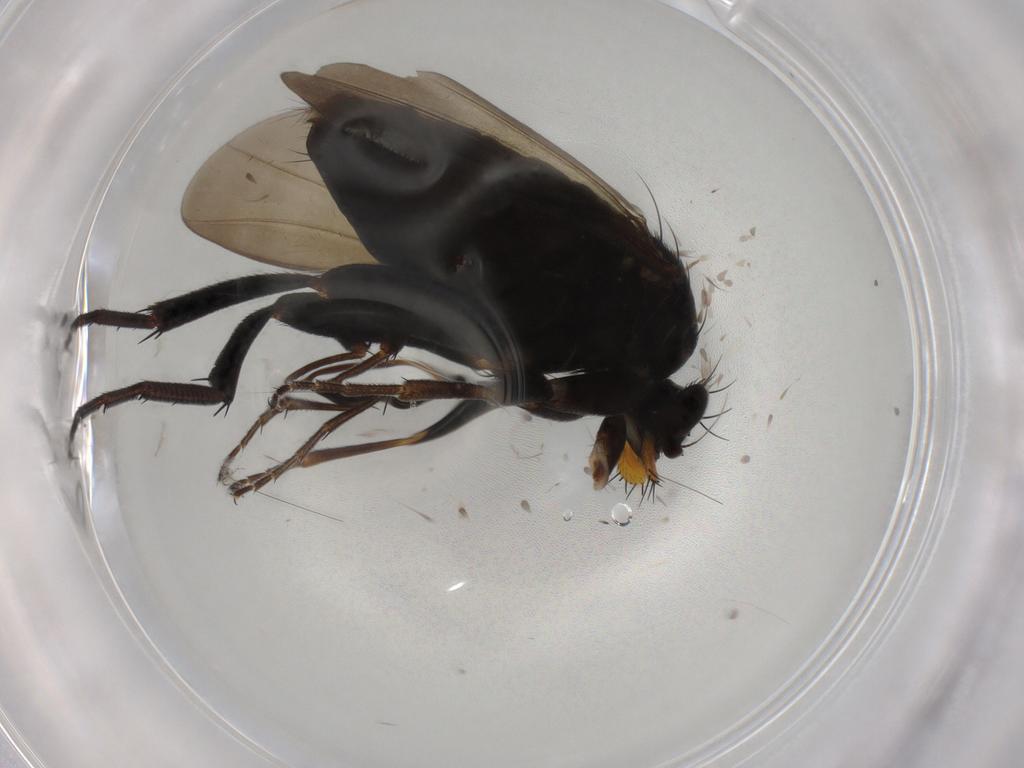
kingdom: Animalia
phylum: Arthropoda
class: Insecta
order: Diptera
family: Phoridae
